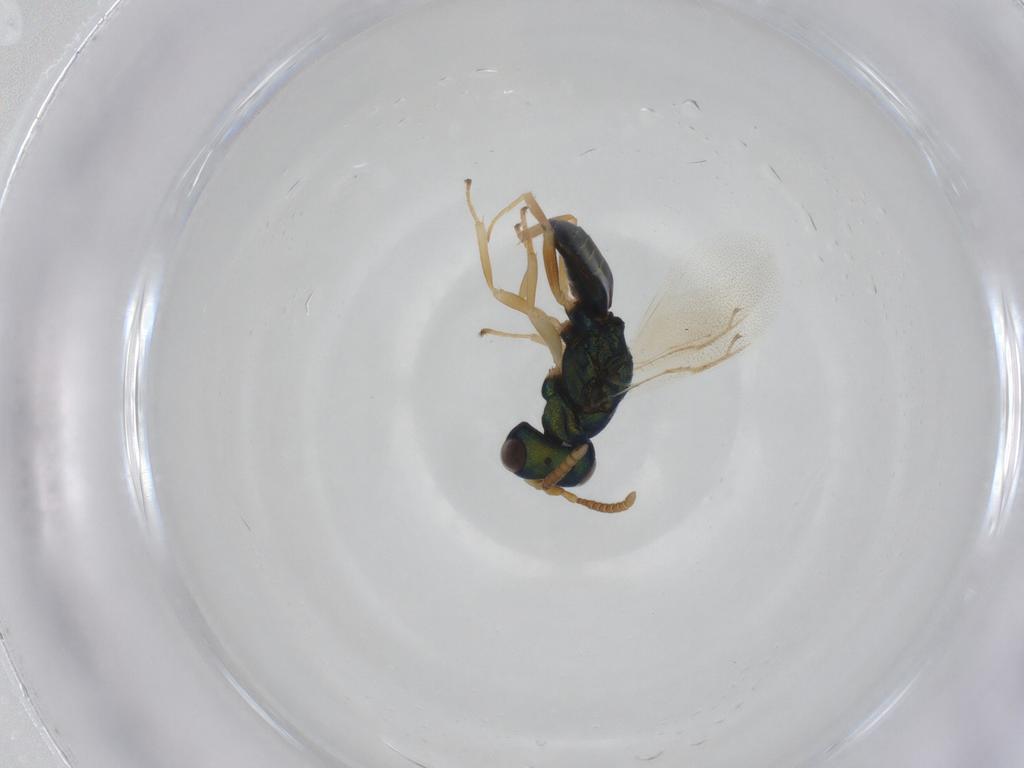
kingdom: Animalia
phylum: Arthropoda
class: Insecta
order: Hymenoptera
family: Pteromalidae
